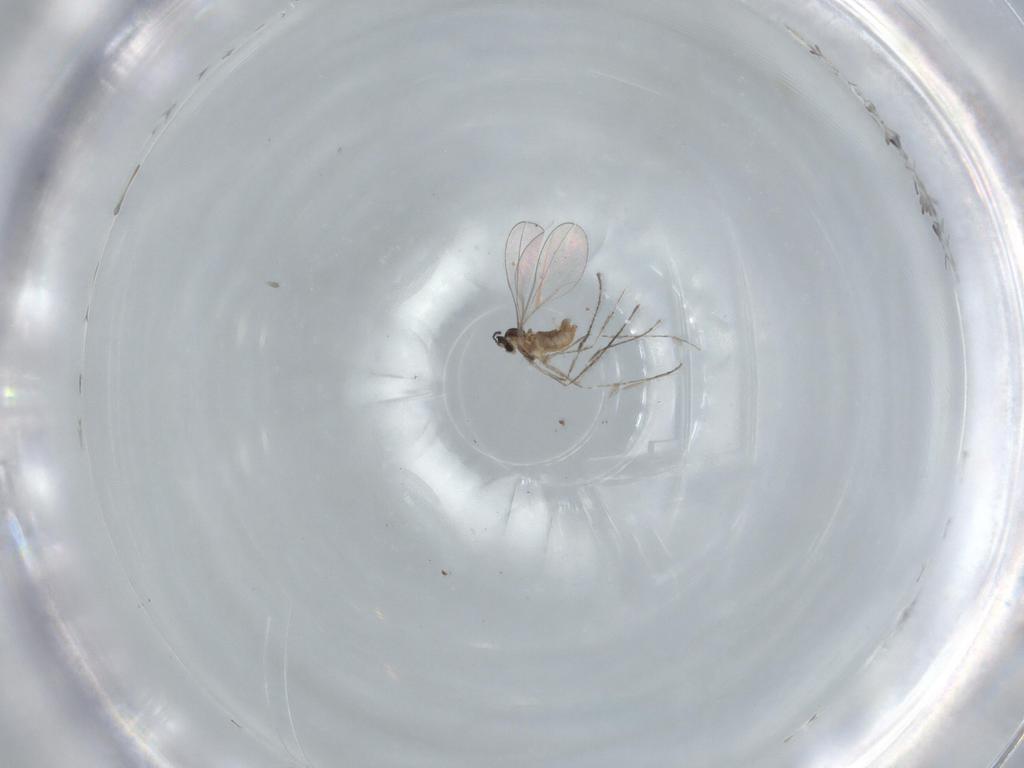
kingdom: Animalia
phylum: Arthropoda
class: Insecta
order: Diptera
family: Cecidomyiidae
